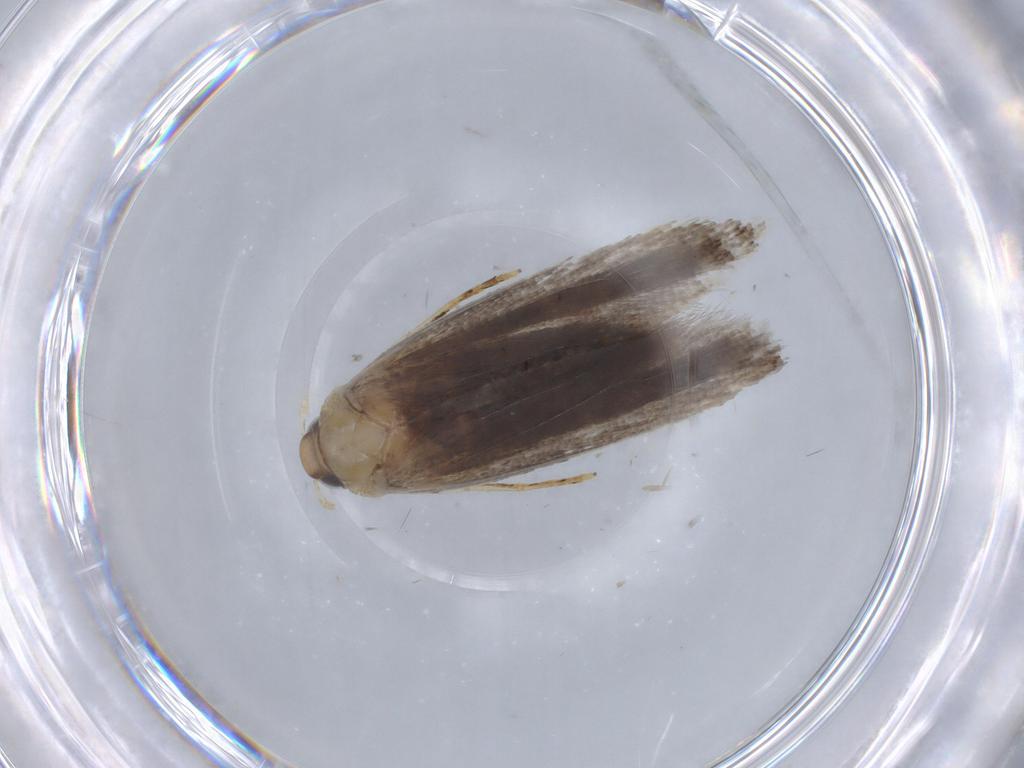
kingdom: Animalia
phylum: Arthropoda
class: Insecta
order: Lepidoptera
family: Gelechiidae
